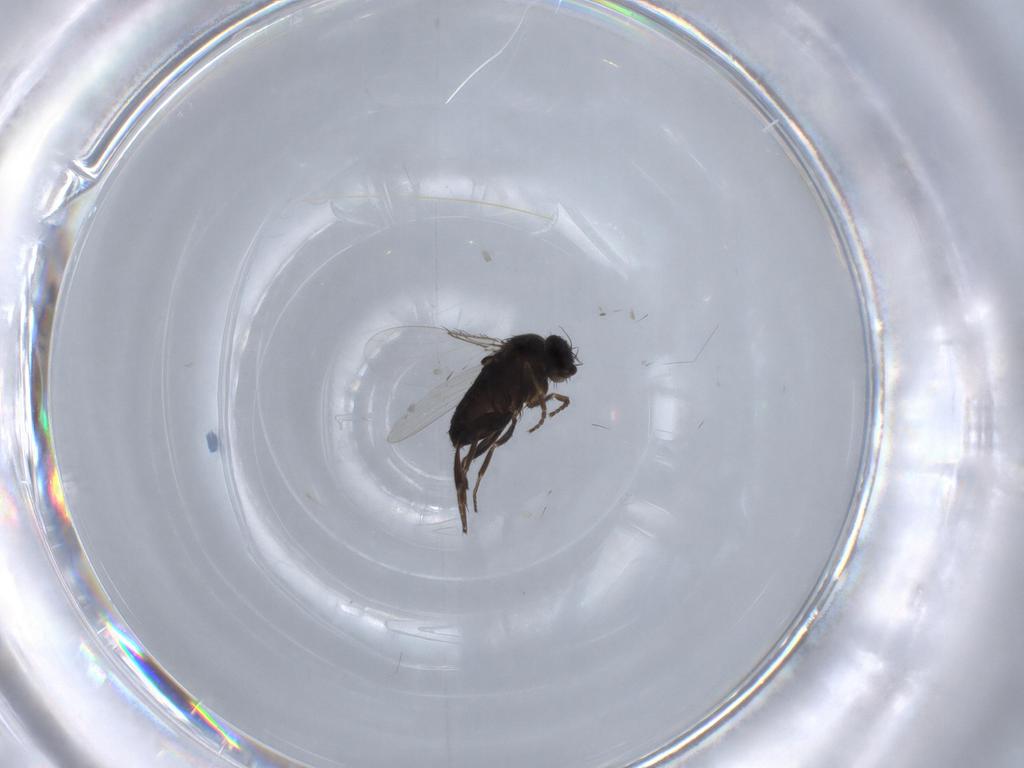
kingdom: Animalia
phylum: Arthropoda
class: Insecta
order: Diptera
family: Phoridae
